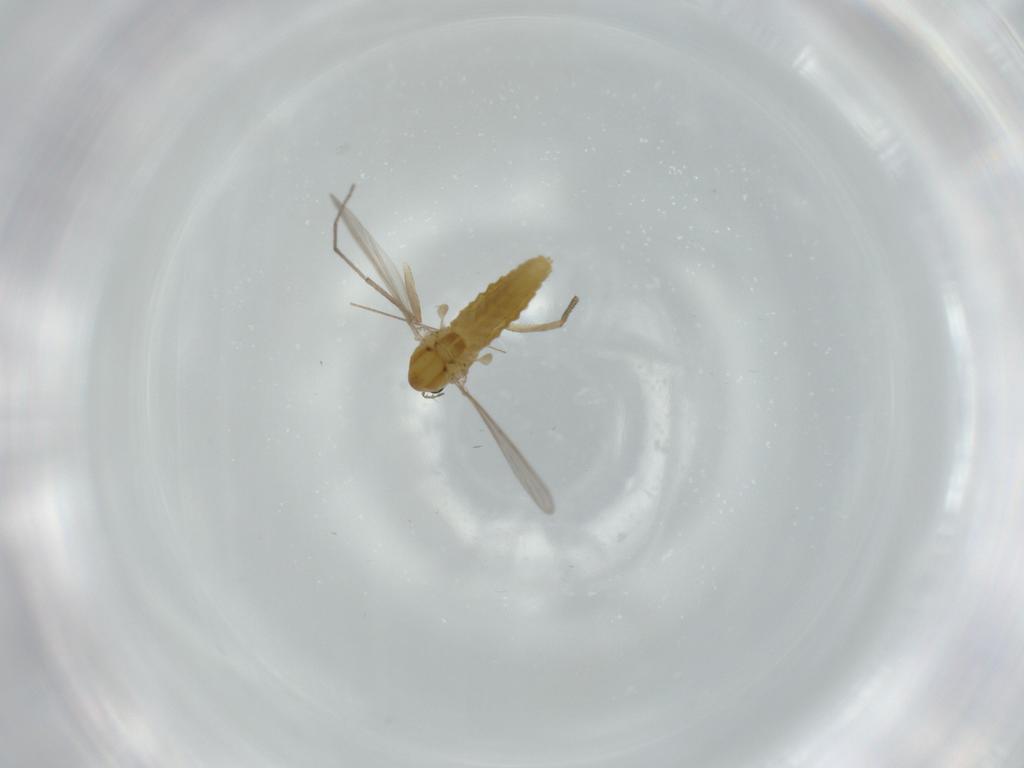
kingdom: Animalia
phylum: Arthropoda
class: Insecta
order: Diptera
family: Chironomidae
